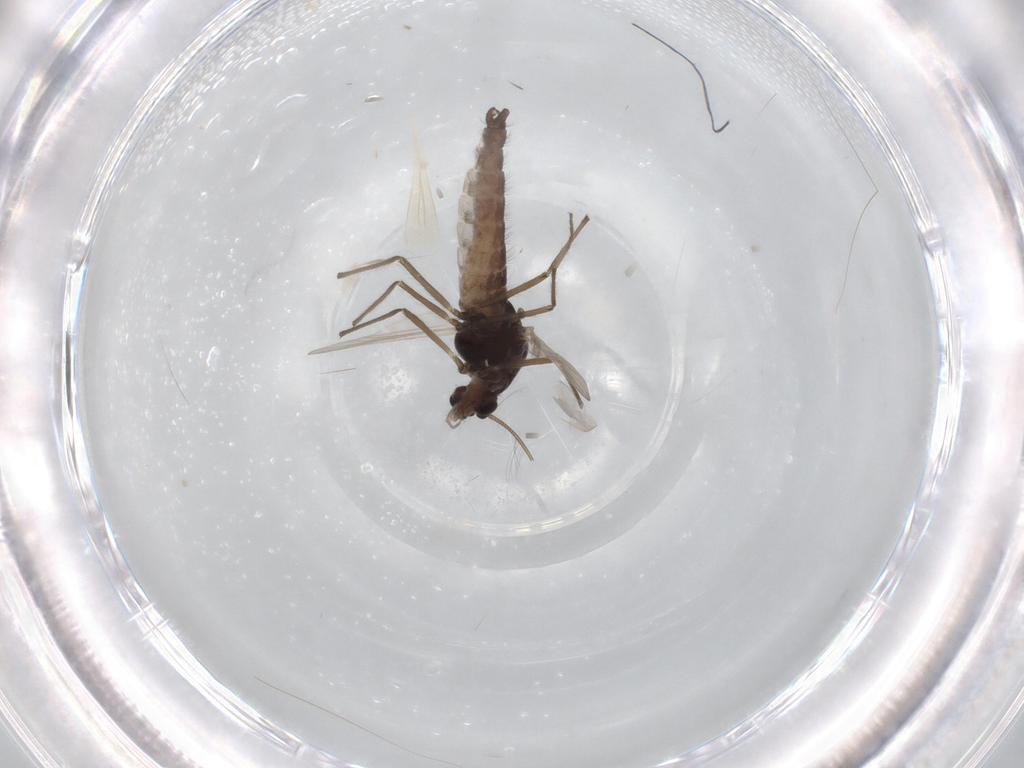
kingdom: Animalia
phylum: Arthropoda
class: Insecta
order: Diptera
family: Chironomidae
